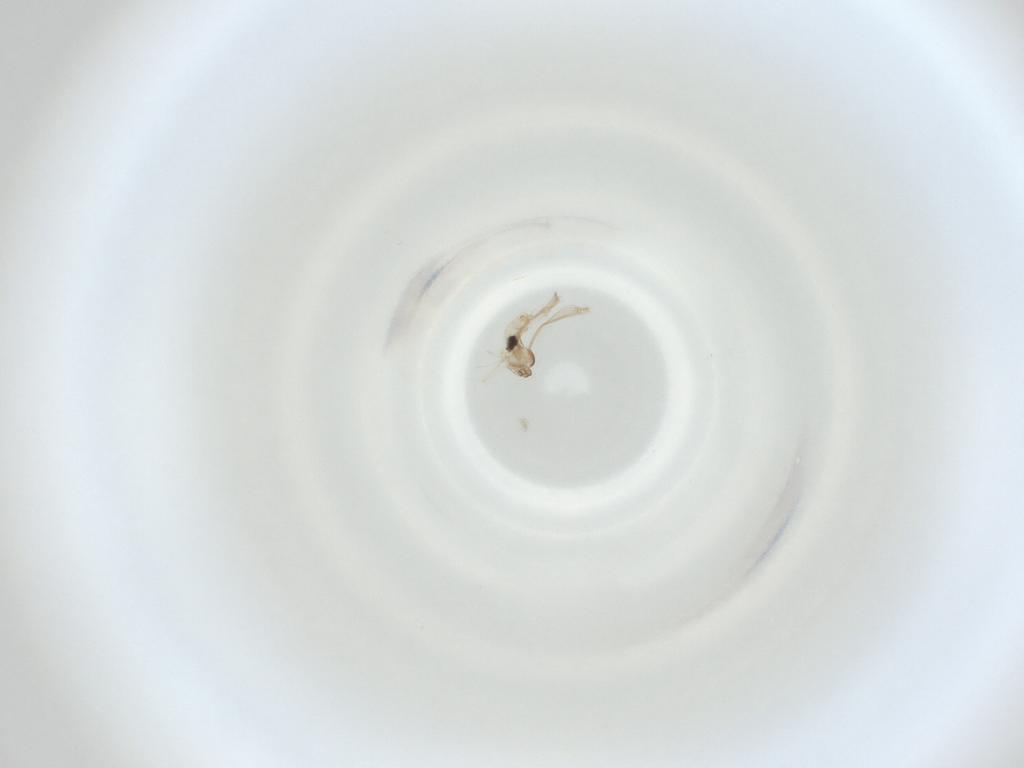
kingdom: Animalia
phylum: Arthropoda
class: Insecta
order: Diptera
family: Cecidomyiidae
